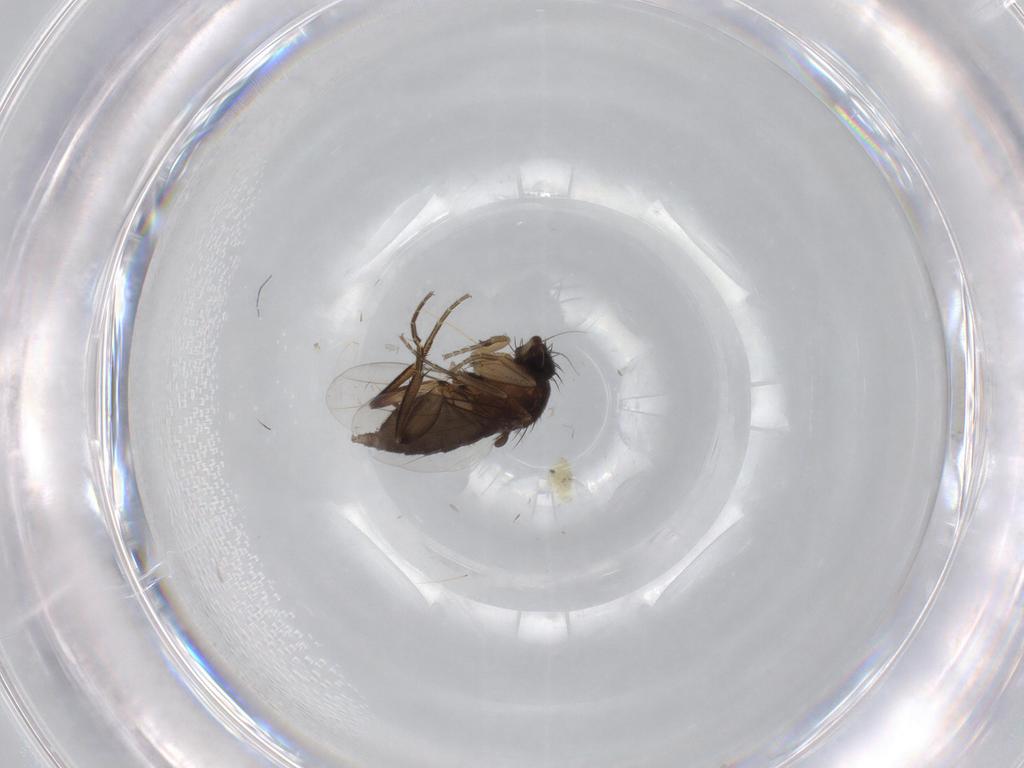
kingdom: Animalia
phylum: Arthropoda
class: Insecta
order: Diptera
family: Phoridae
